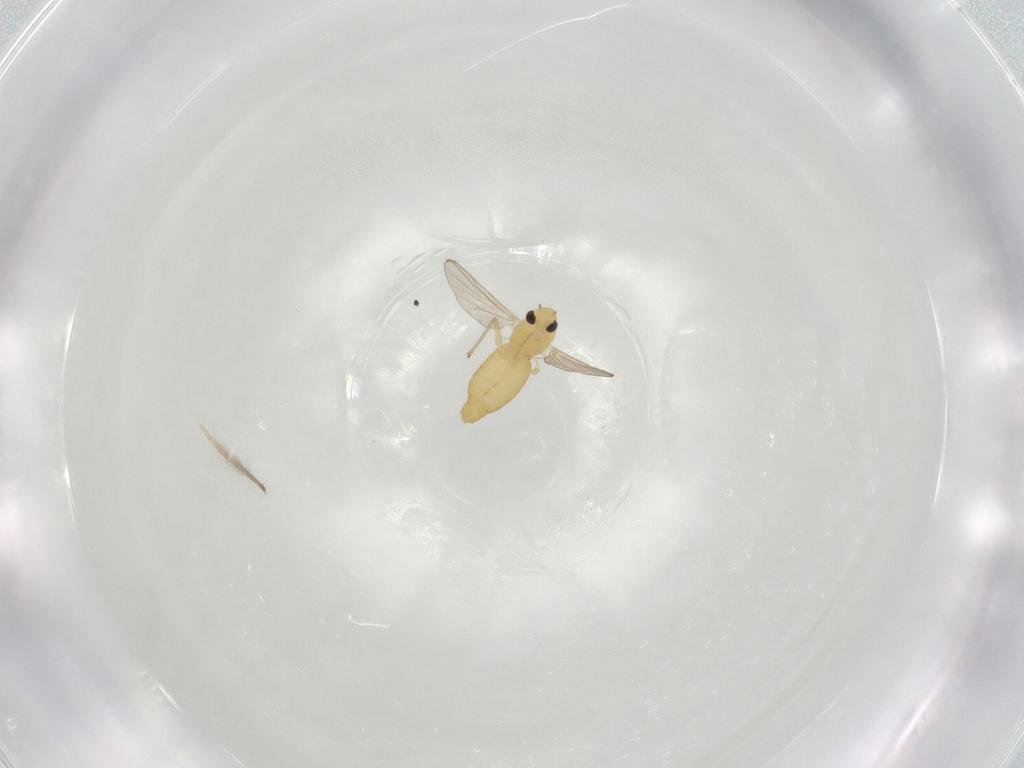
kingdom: Animalia
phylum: Arthropoda
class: Insecta
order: Diptera
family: Chironomidae
